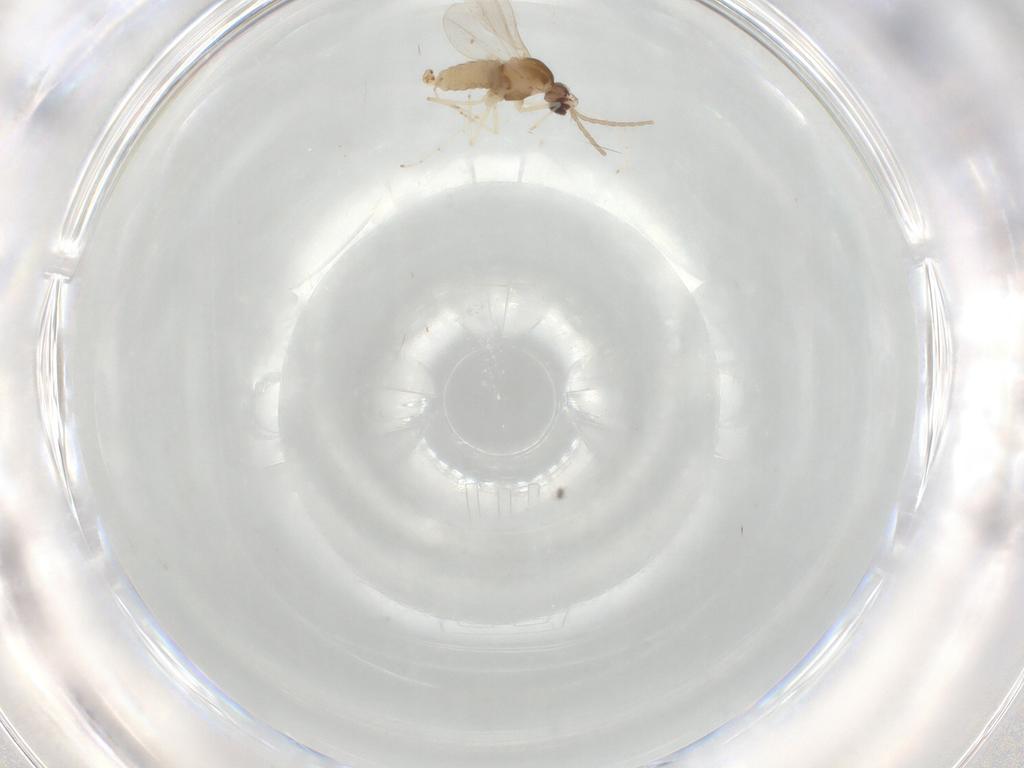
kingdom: Animalia
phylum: Arthropoda
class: Insecta
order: Diptera
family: Cecidomyiidae
